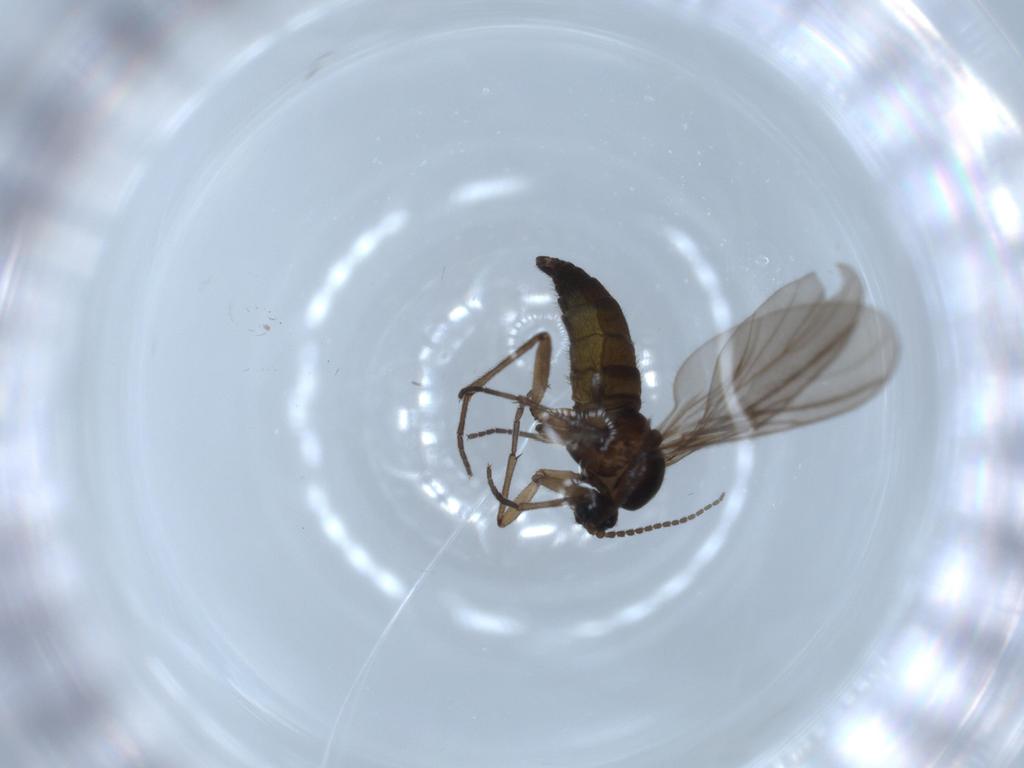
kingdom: Animalia
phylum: Arthropoda
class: Insecta
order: Diptera
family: Sciaridae
